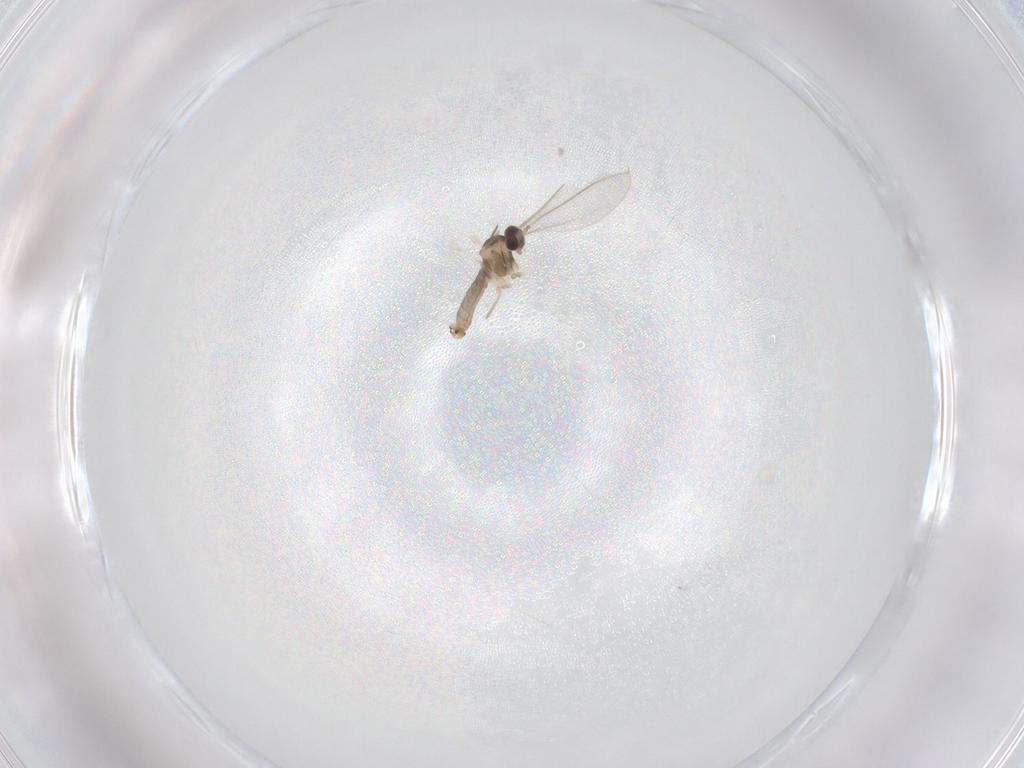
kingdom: Animalia
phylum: Arthropoda
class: Insecta
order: Diptera
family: Cecidomyiidae
